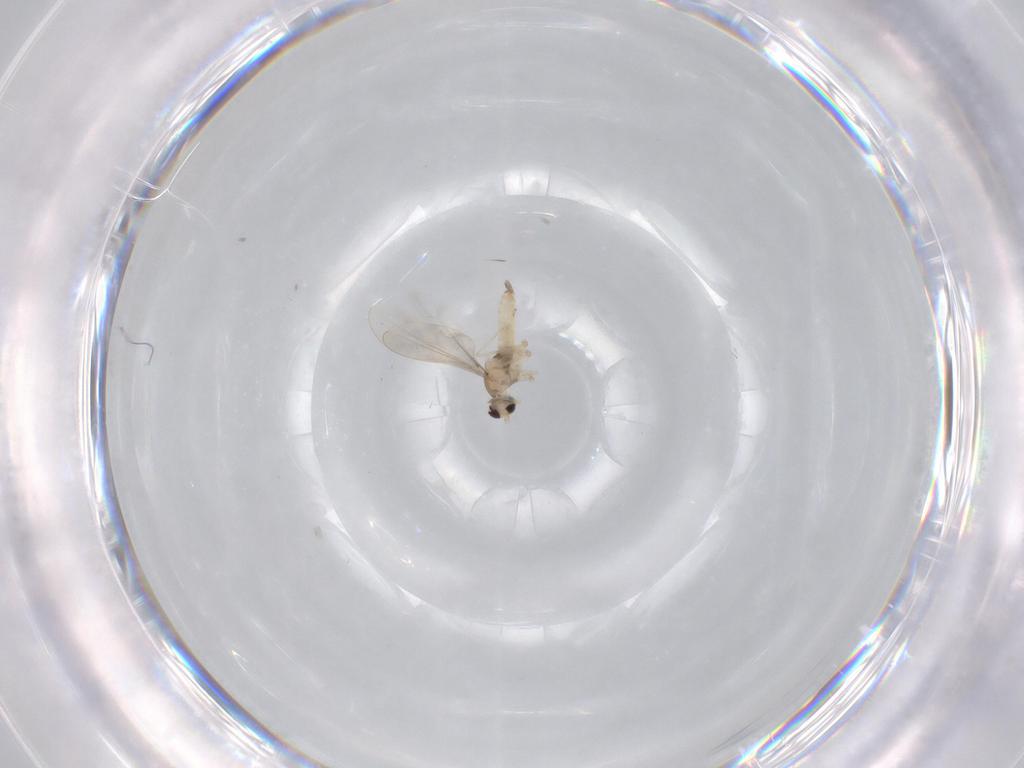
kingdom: Animalia
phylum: Arthropoda
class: Insecta
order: Diptera
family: Cecidomyiidae
